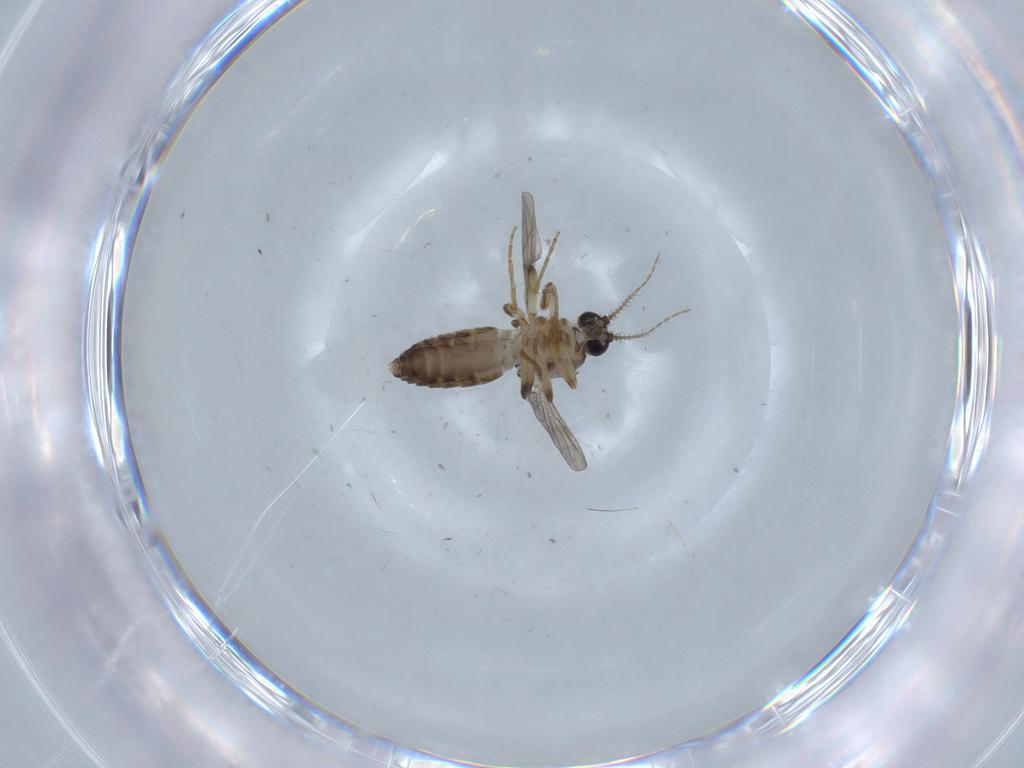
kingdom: Animalia
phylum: Arthropoda
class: Insecta
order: Diptera
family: Ceratopogonidae
